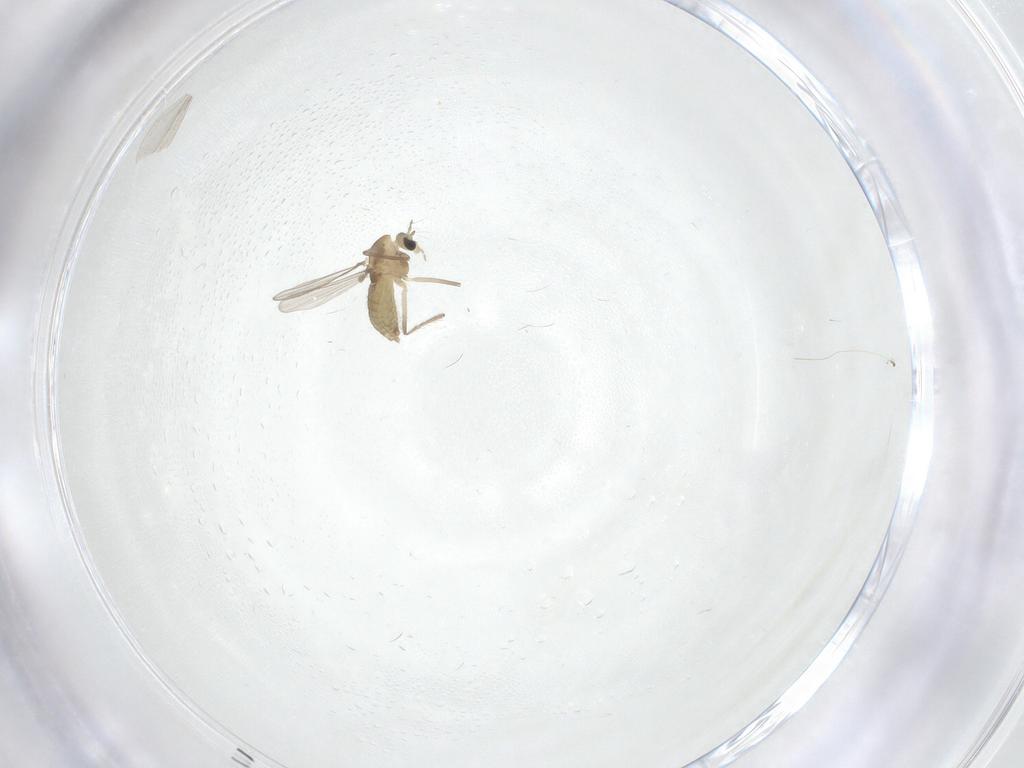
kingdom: Animalia
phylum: Arthropoda
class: Insecta
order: Diptera
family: Chironomidae
